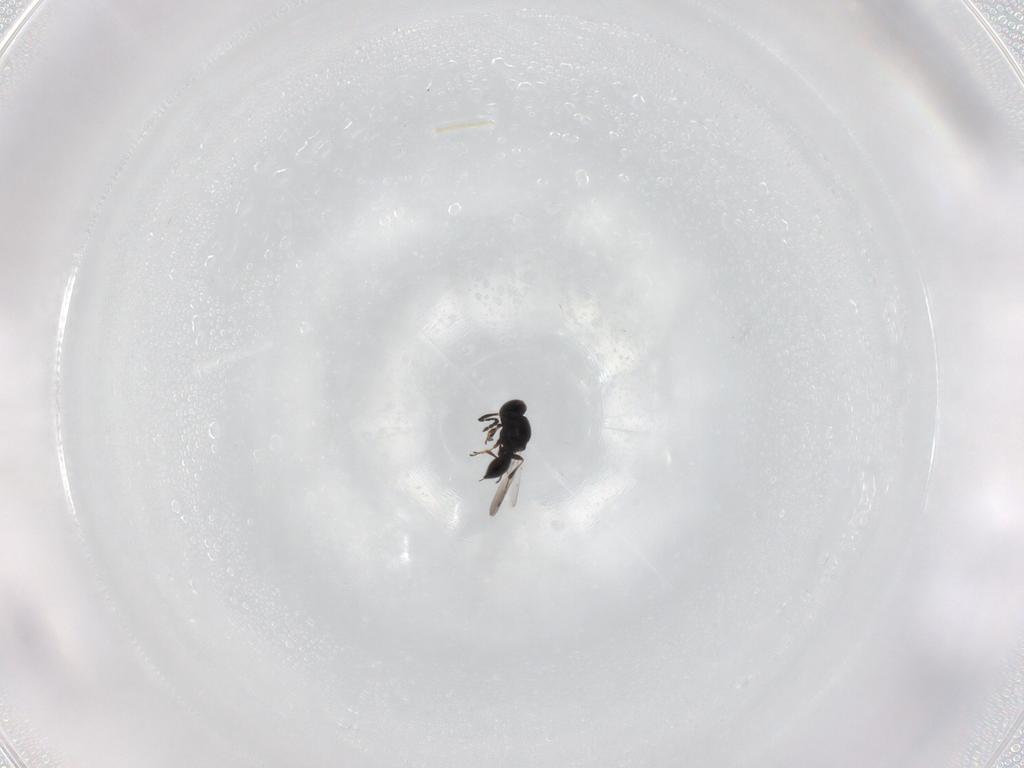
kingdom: Animalia
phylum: Arthropoda
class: Insecta
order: Hymenoptera
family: Platygastridae
